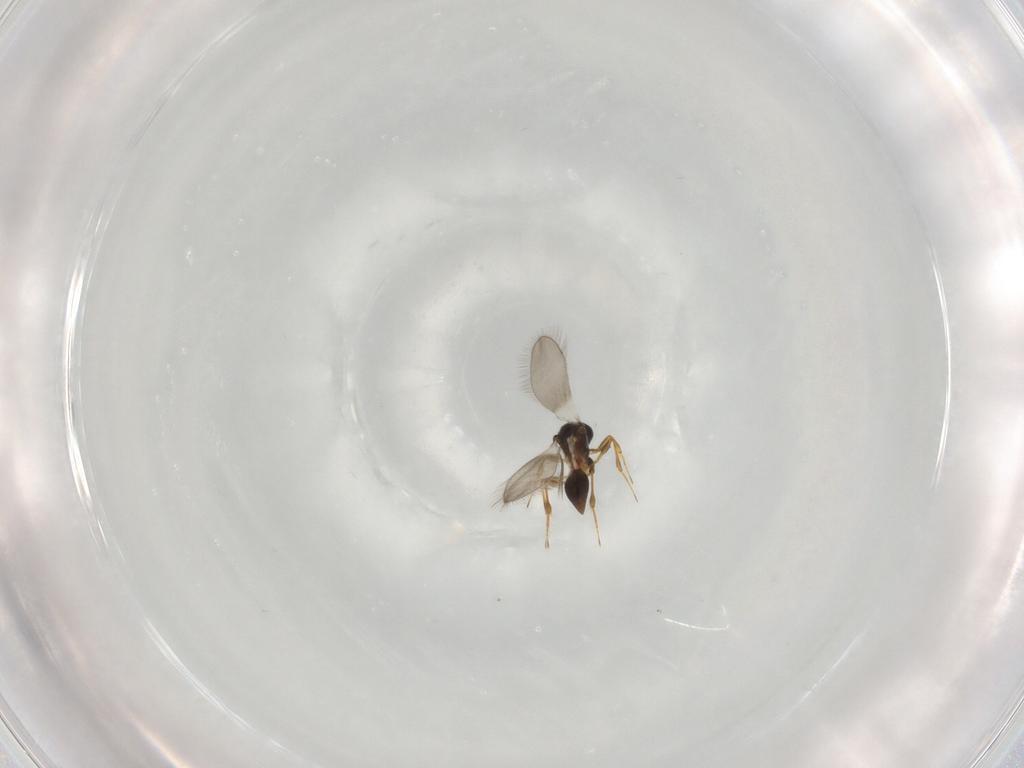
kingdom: Animalia
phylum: Arthropoda
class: Insecta
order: Hymenoptera
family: Platygastridae
